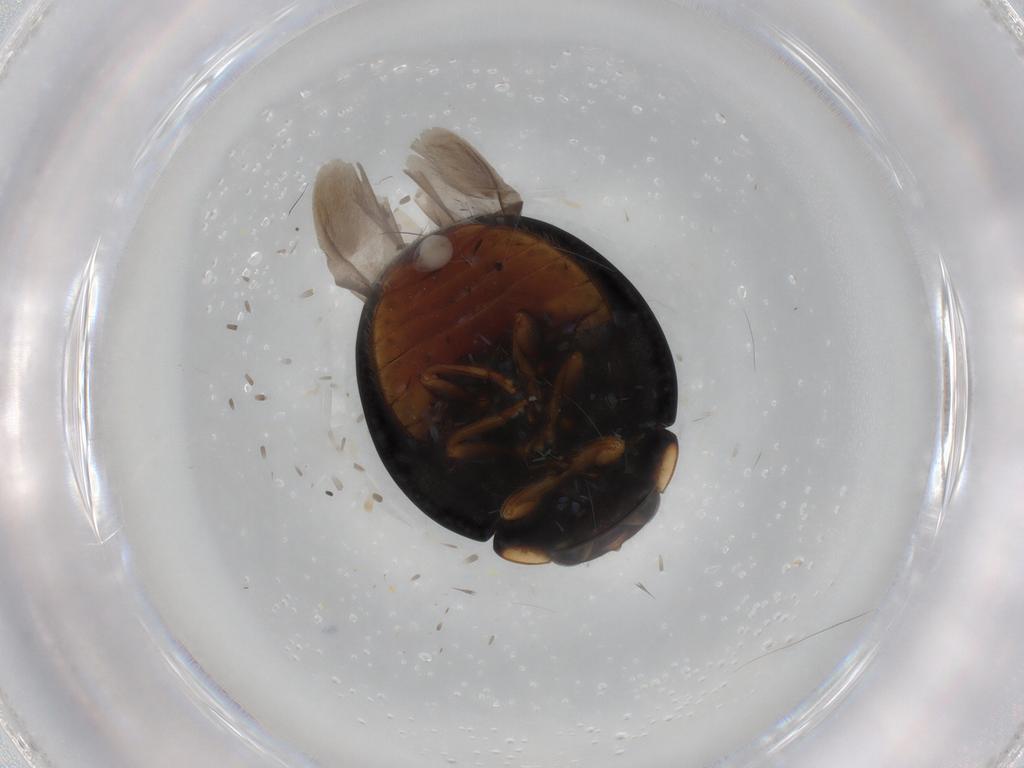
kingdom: Animalia
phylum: Arthropoda
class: Insecta
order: Coleoptera
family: Coccinellidae
